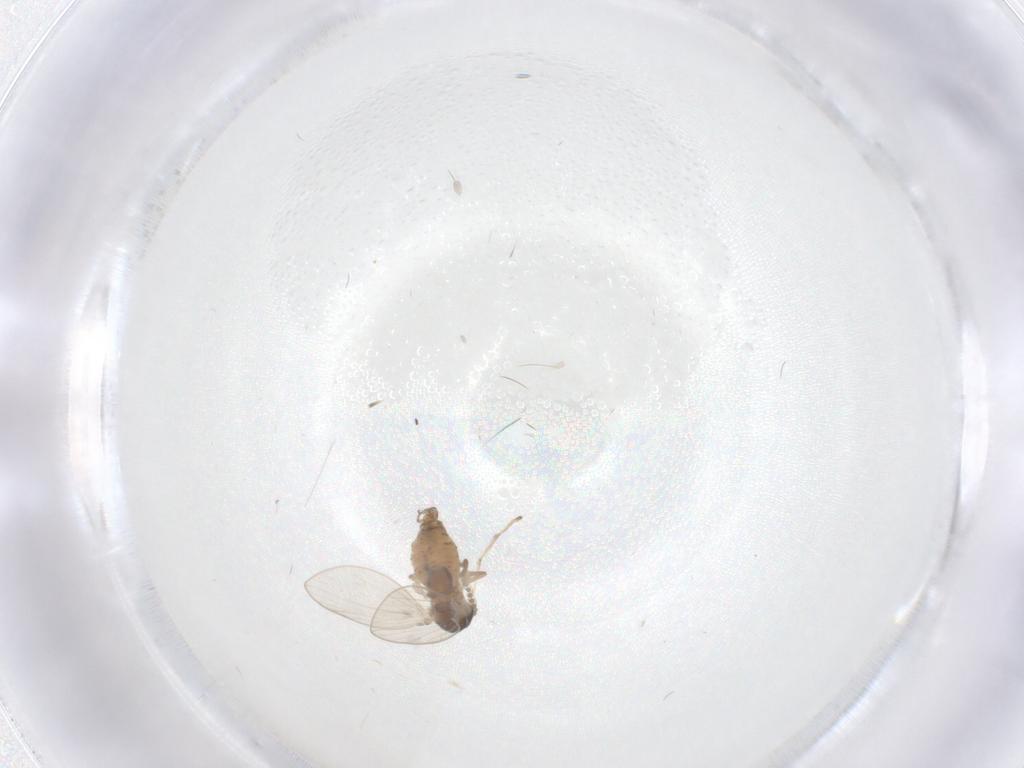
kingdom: Animalia
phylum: Arthropoda
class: Insecta
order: Diptera
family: Psychodidae
